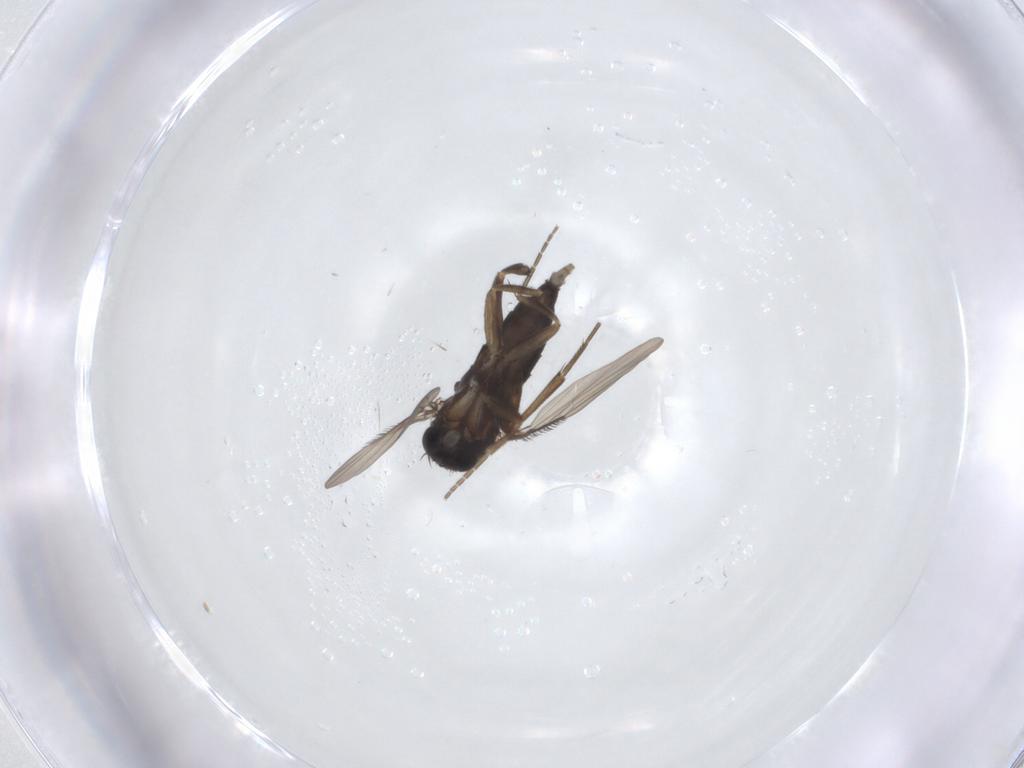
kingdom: Animalia
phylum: Arthropoda
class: Insecta
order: Diptera
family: Phoridae
